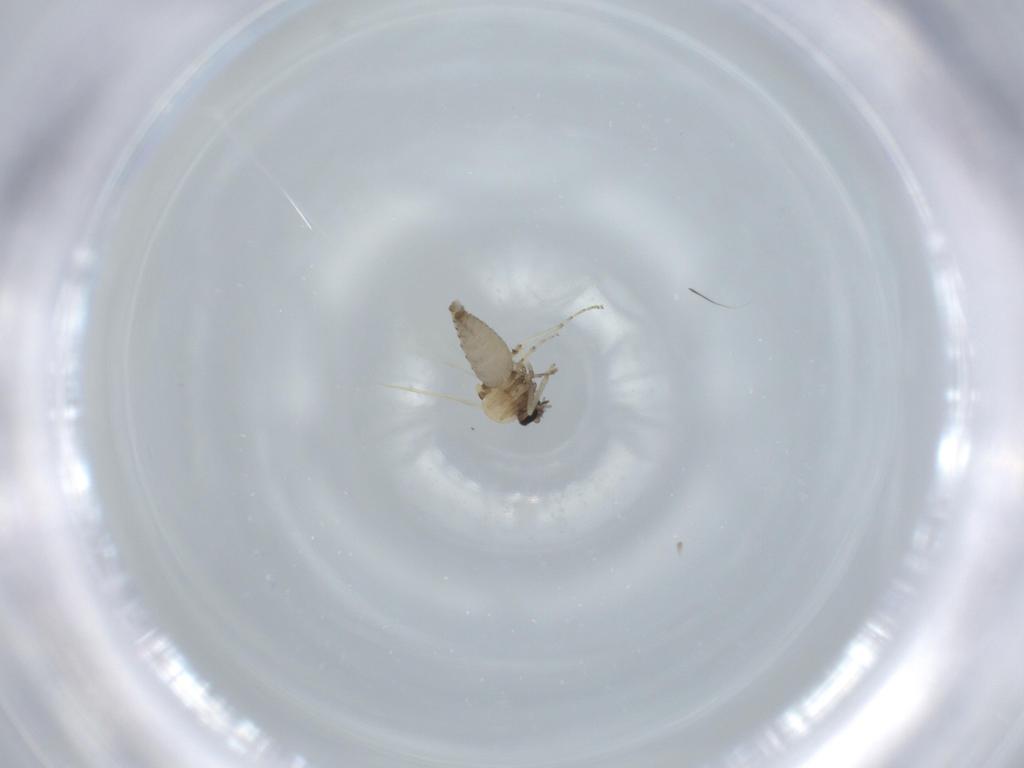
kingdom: Animalia
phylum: Arthropoda
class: Insecta
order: Diptera
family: Ceratopogonidae
